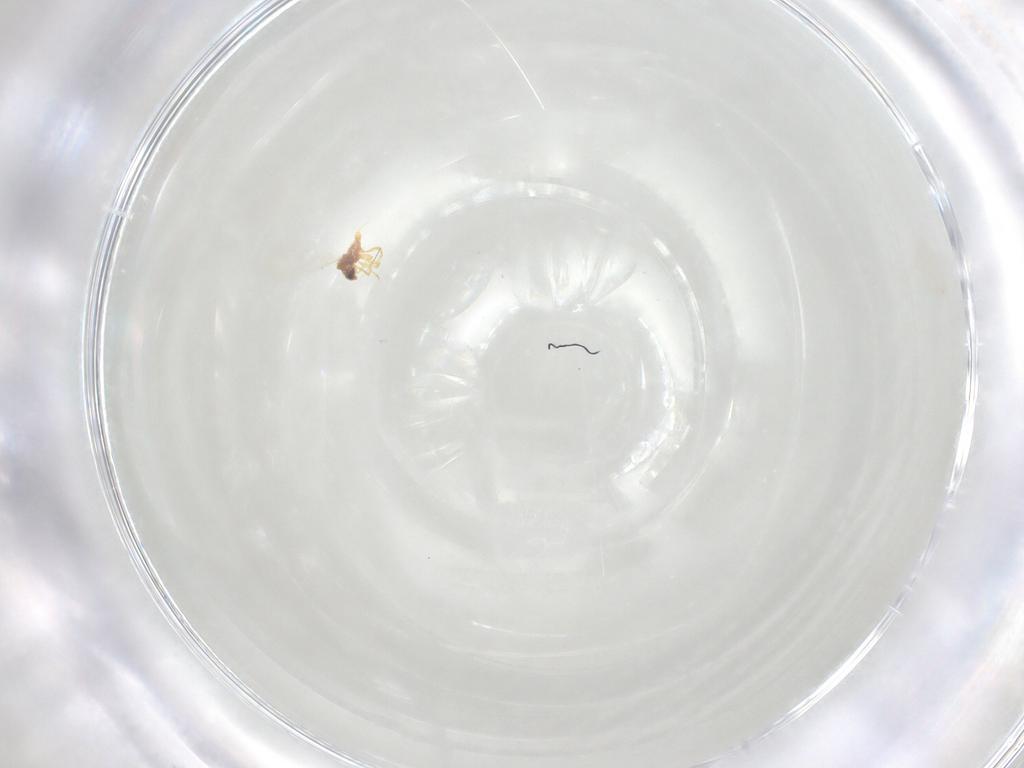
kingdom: Animalia
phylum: Arthropoda
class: Insecta
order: Hemiptera
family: Diaspididae
